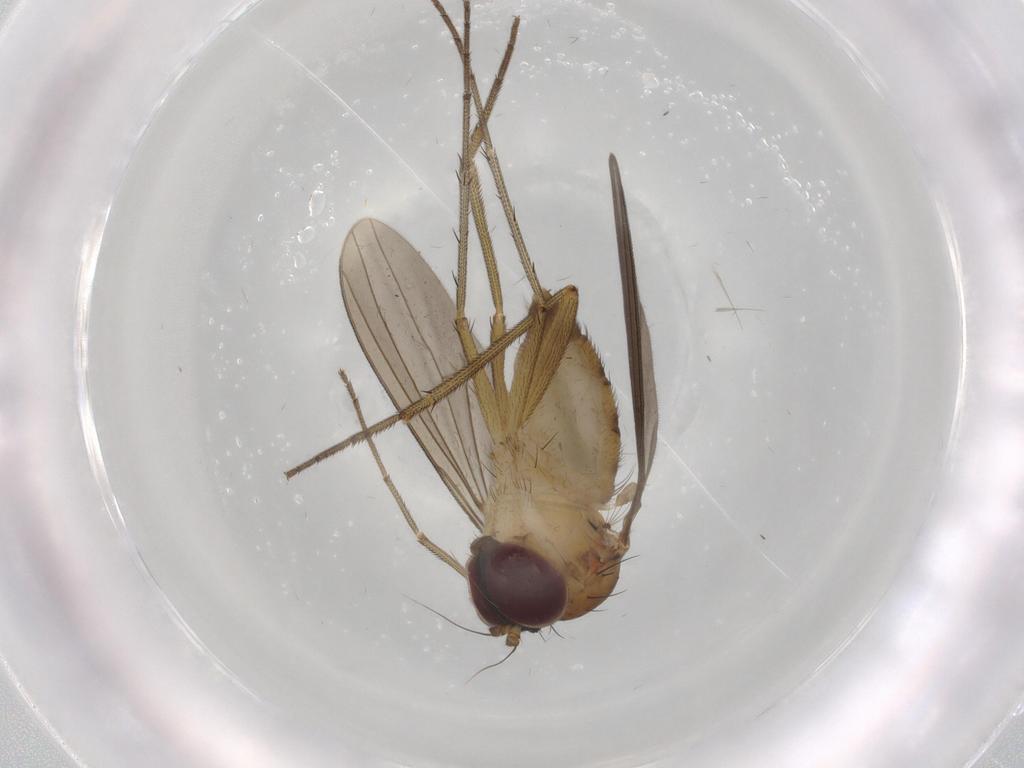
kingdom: Animalia
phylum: Arthropoda
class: Insecta
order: Diptera
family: Dolichopodidae
